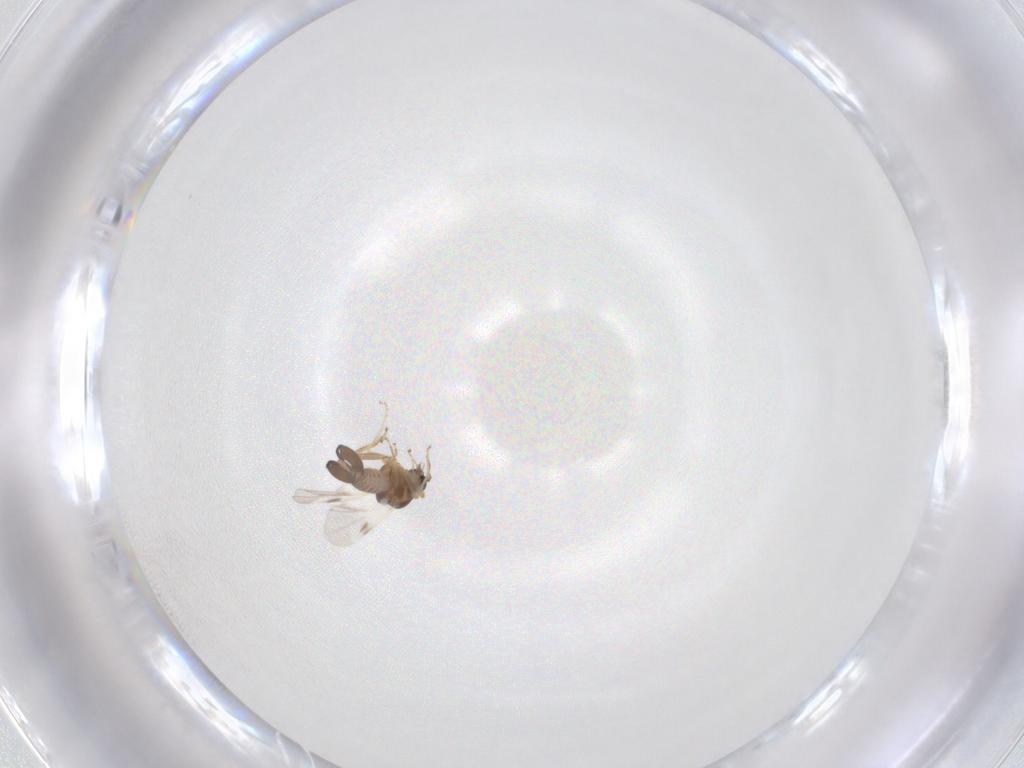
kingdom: Animalia
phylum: Arthropoda
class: Insecta
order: Diptera
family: Ceratopogonidae
